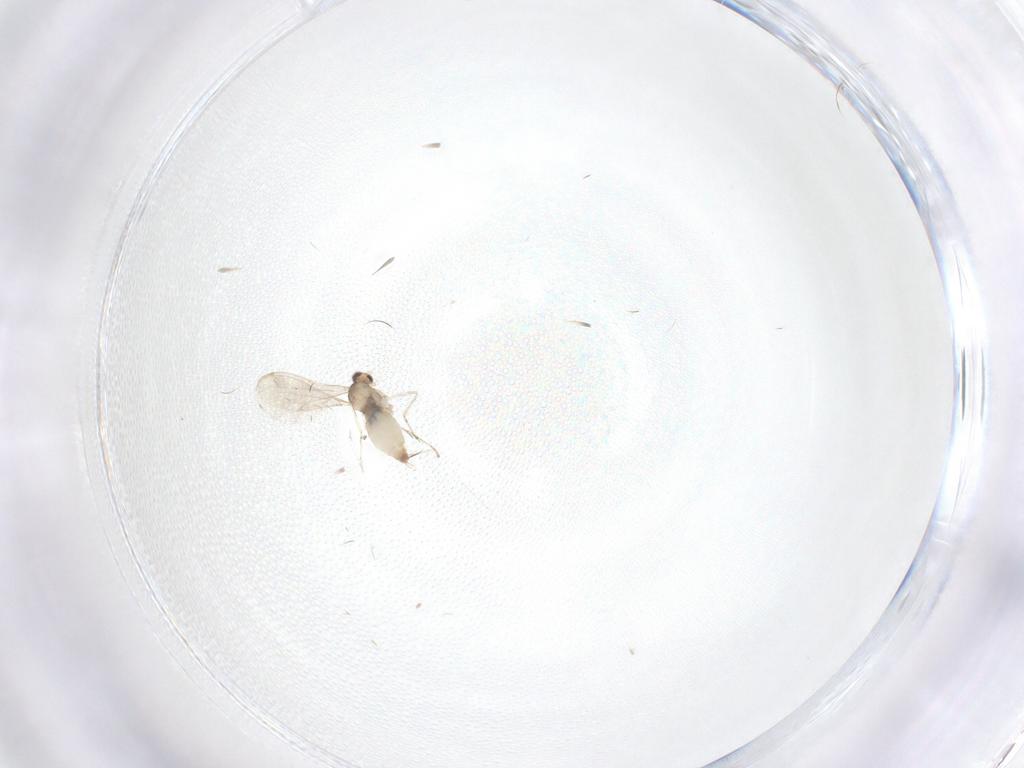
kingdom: Animalia
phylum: Arthropoda
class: Insecta
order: Diptera
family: Cecidomyiidae
